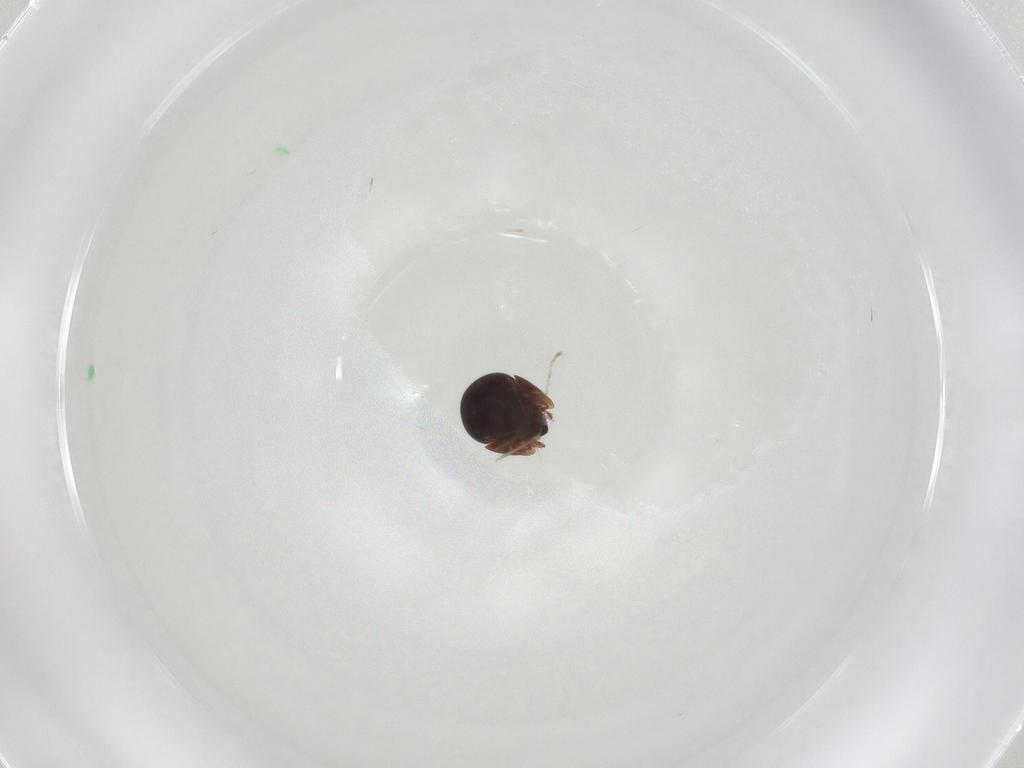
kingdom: Animalia
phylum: Arthropoda
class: Arachnida
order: Sarcoptiformes
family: Galumnidae
